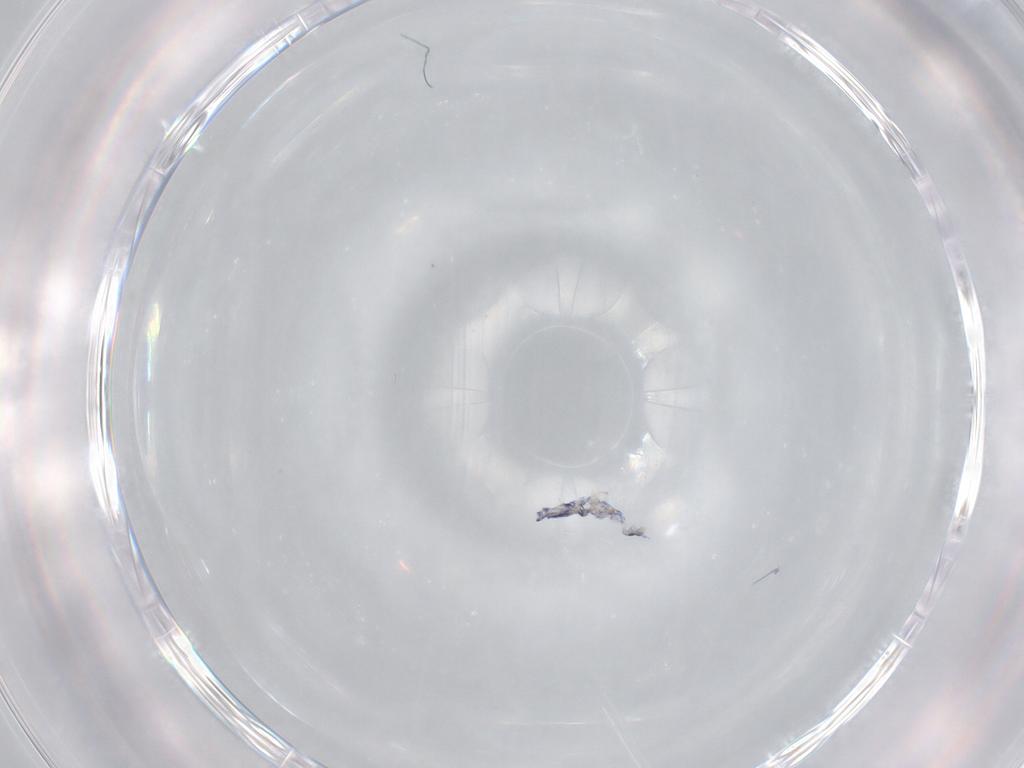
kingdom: Animalia
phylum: Arthropoda
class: Collembola
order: Entomobryomorpha
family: Entomobryidae
